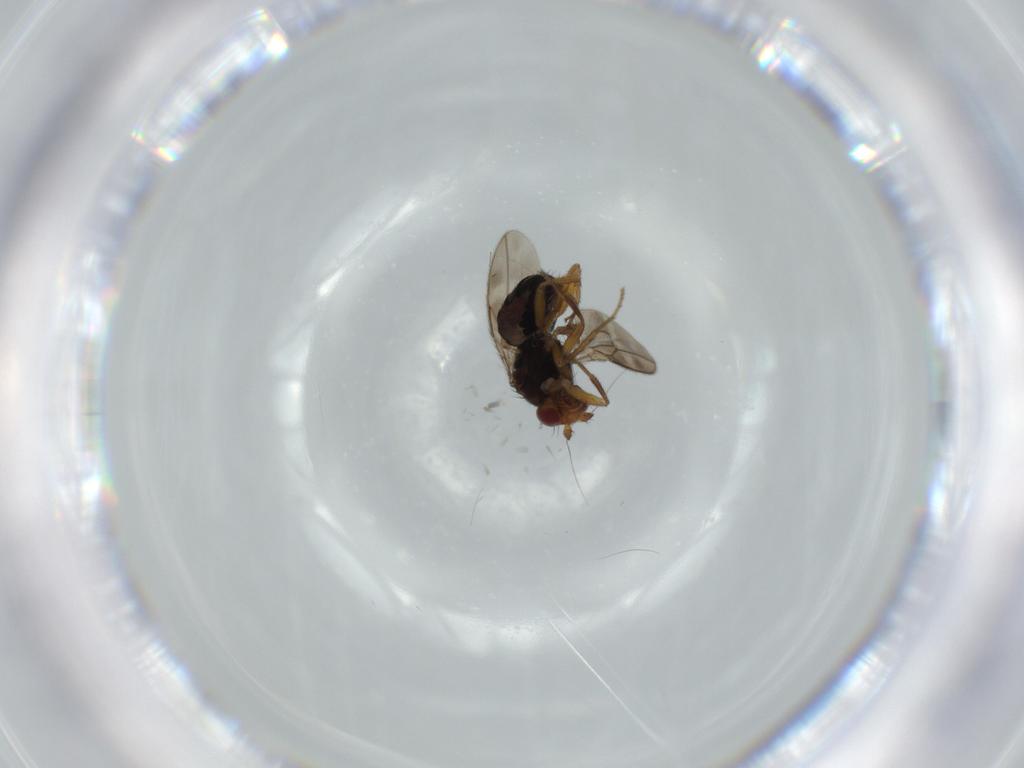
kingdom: Animalia
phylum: Arthropoda
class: Insecta
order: Diptera
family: Sphaeroceridae
